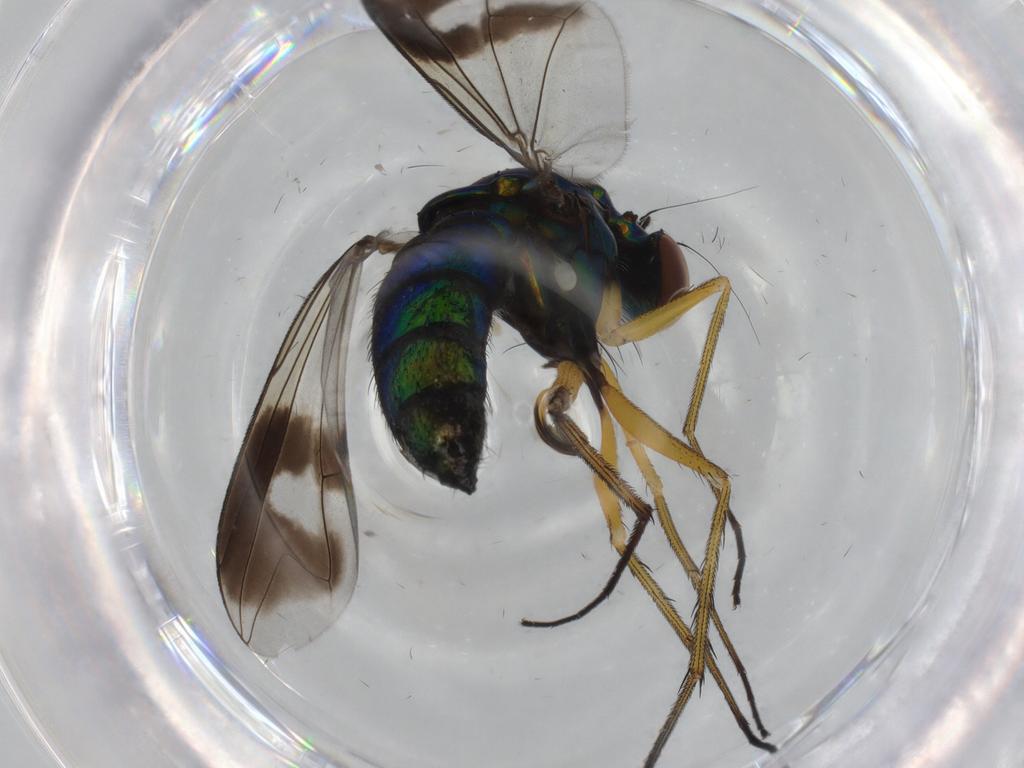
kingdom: Animalia
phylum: Arthropoda
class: Insecta
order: Diptera
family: Dolichopodidae
